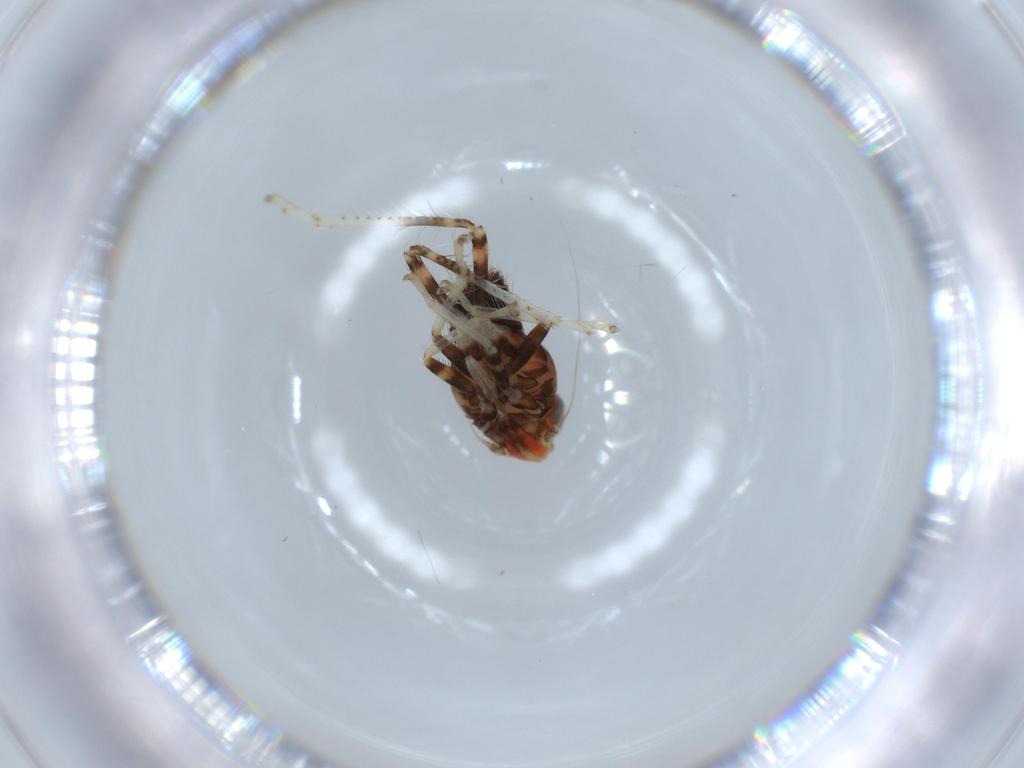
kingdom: Animalia
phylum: Arthropoda
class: Insecta
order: Hemiptera
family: Cicadellidae
